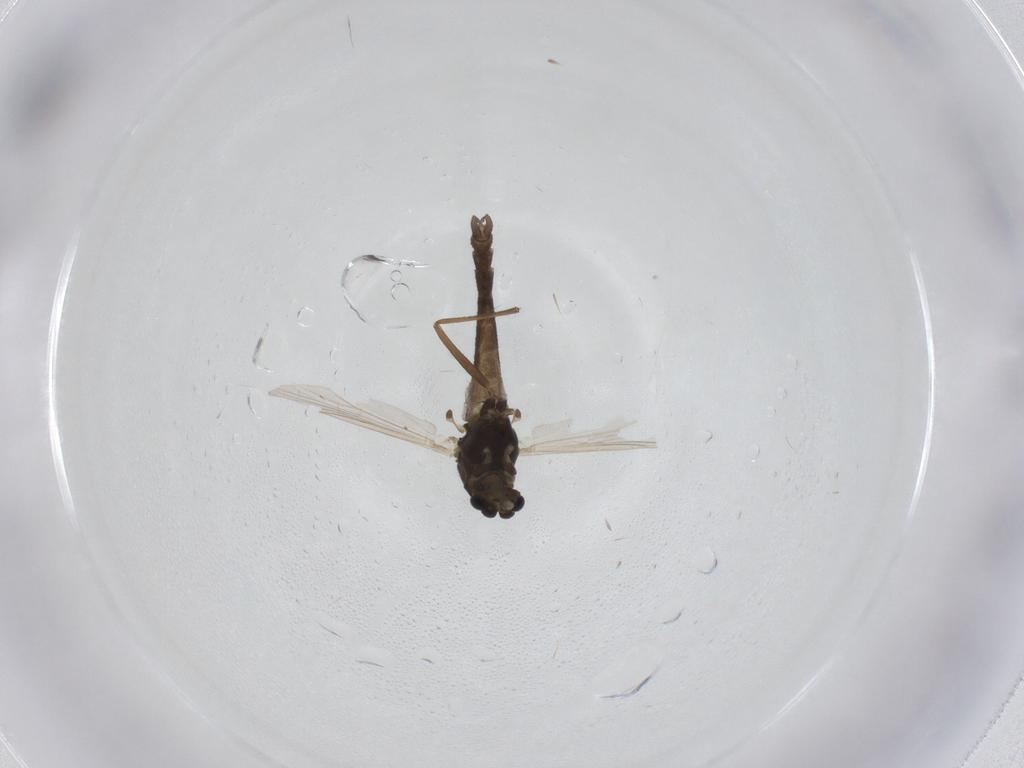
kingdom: Animalia
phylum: Arthropoda
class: Insecta
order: Diptera
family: Chironomidae
